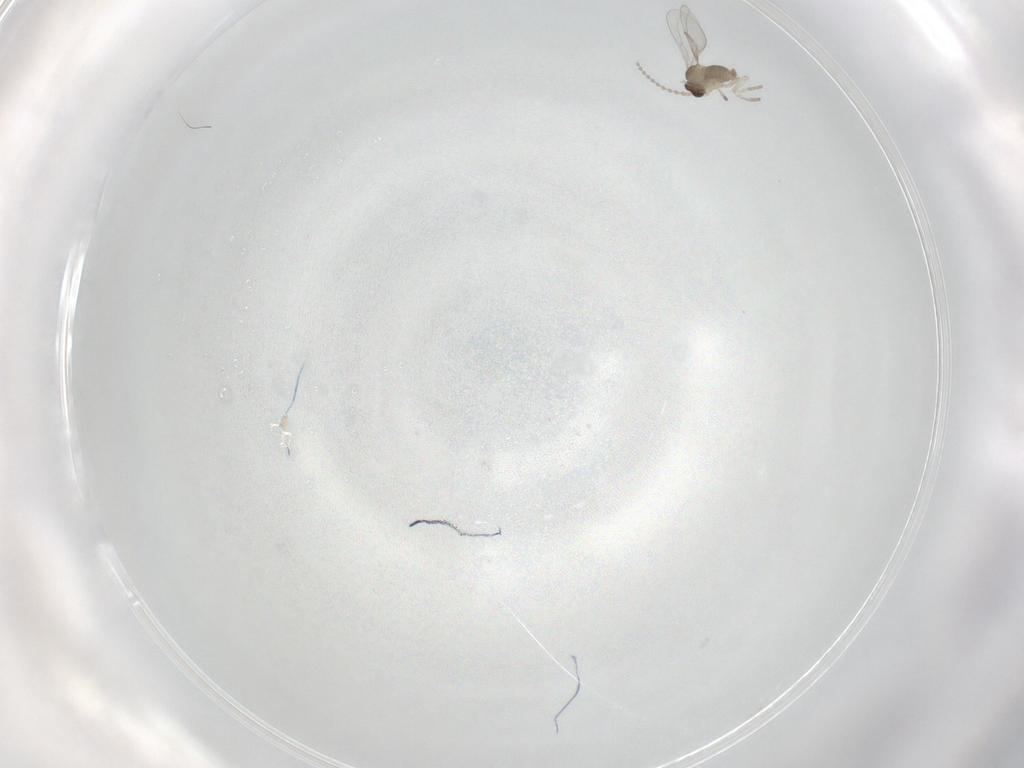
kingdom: Animalia
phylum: Arthropoda
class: Insecta
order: Diptera
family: Cecidomyiidae
